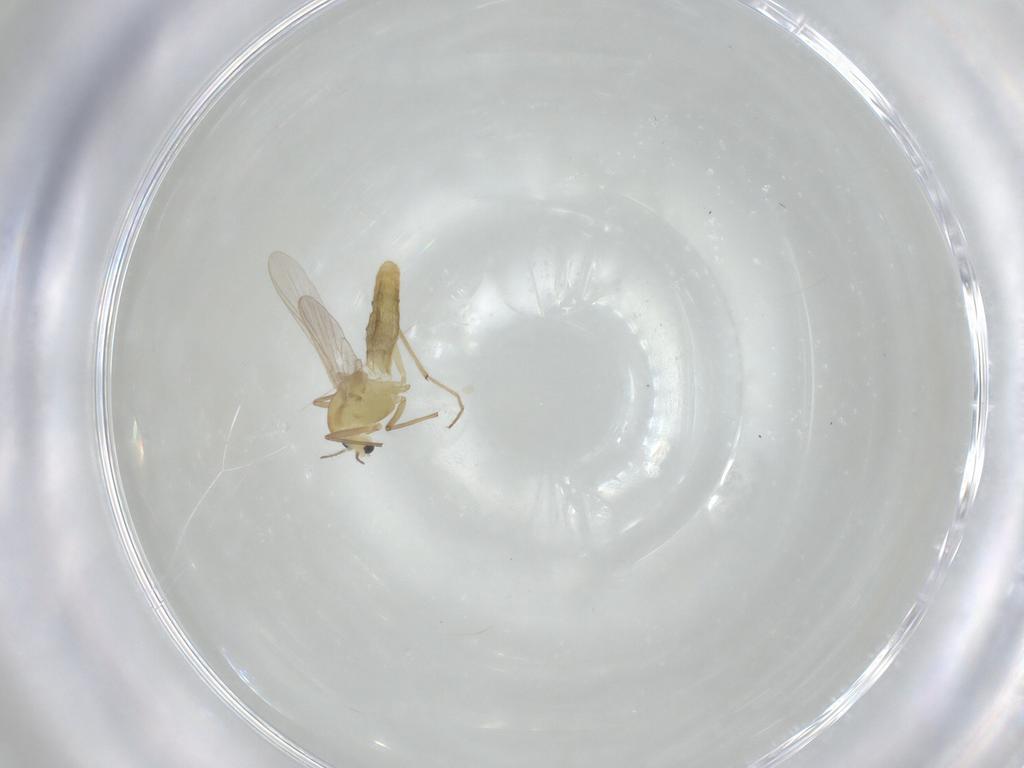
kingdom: Animalia
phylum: Arthropoda
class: Insecta
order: Diptera
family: Chironomidae
